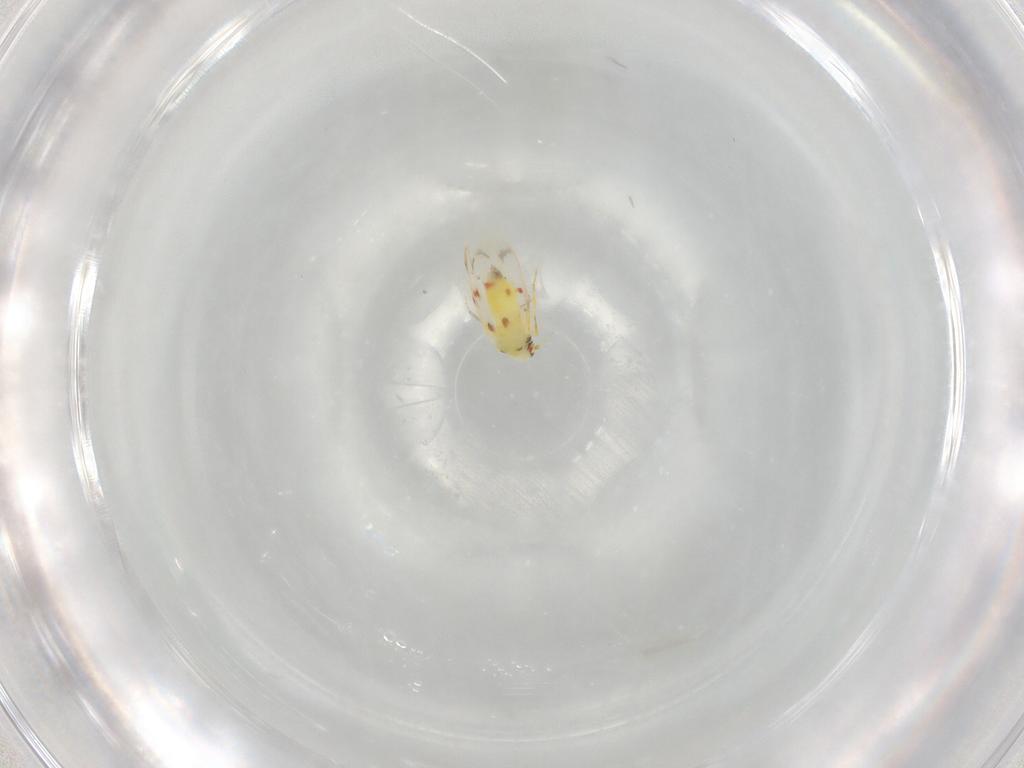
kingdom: Animalia
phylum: Arthropoda
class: Insecta
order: Hemiptera
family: Aleyrodidae
